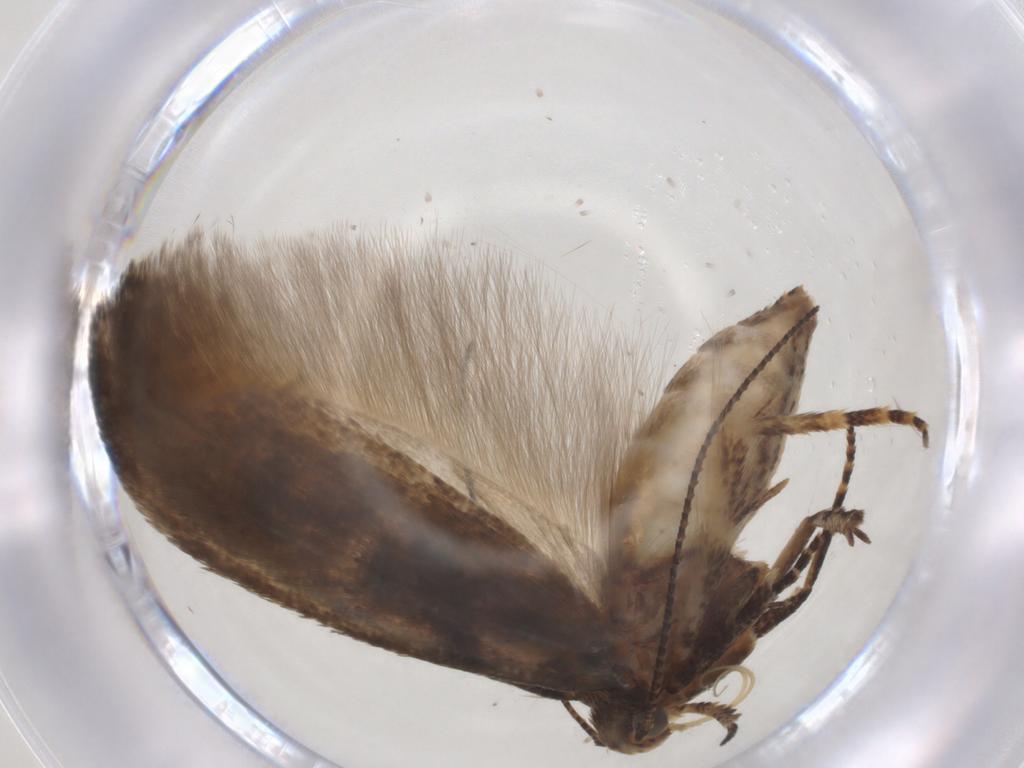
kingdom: Animalia
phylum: Arthropoda
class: Insecta
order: Lepidoptera
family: Gelechiidae
